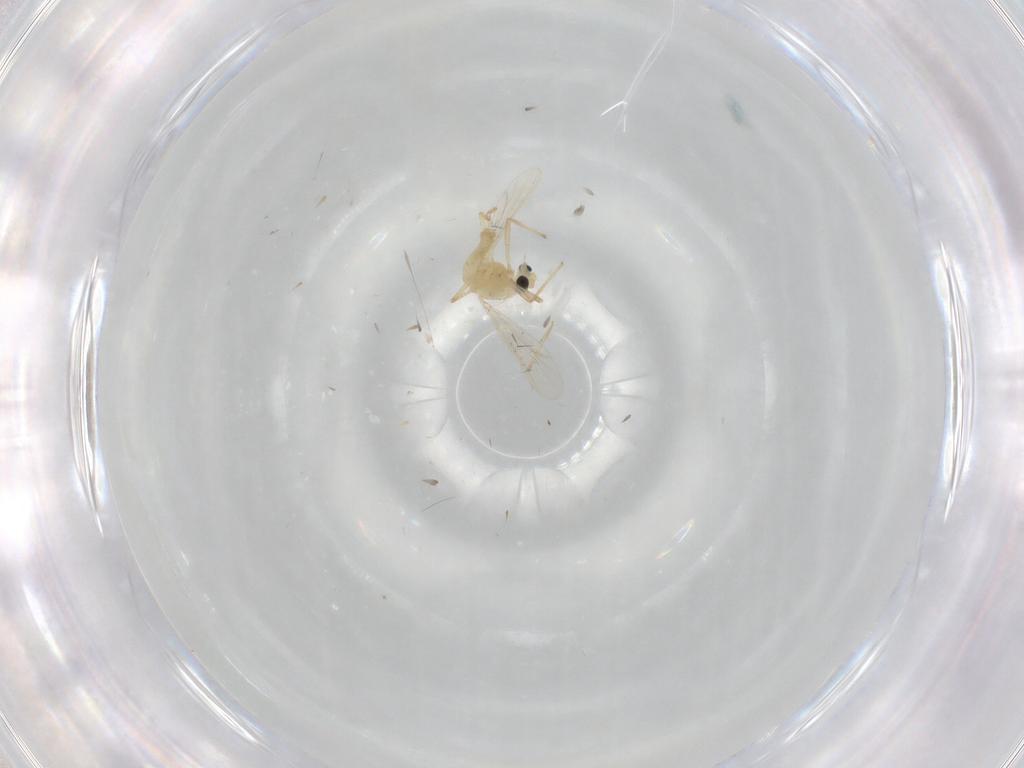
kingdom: Animalia
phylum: Arthropoda
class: Insecta
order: Diptera
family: Chironomidae
